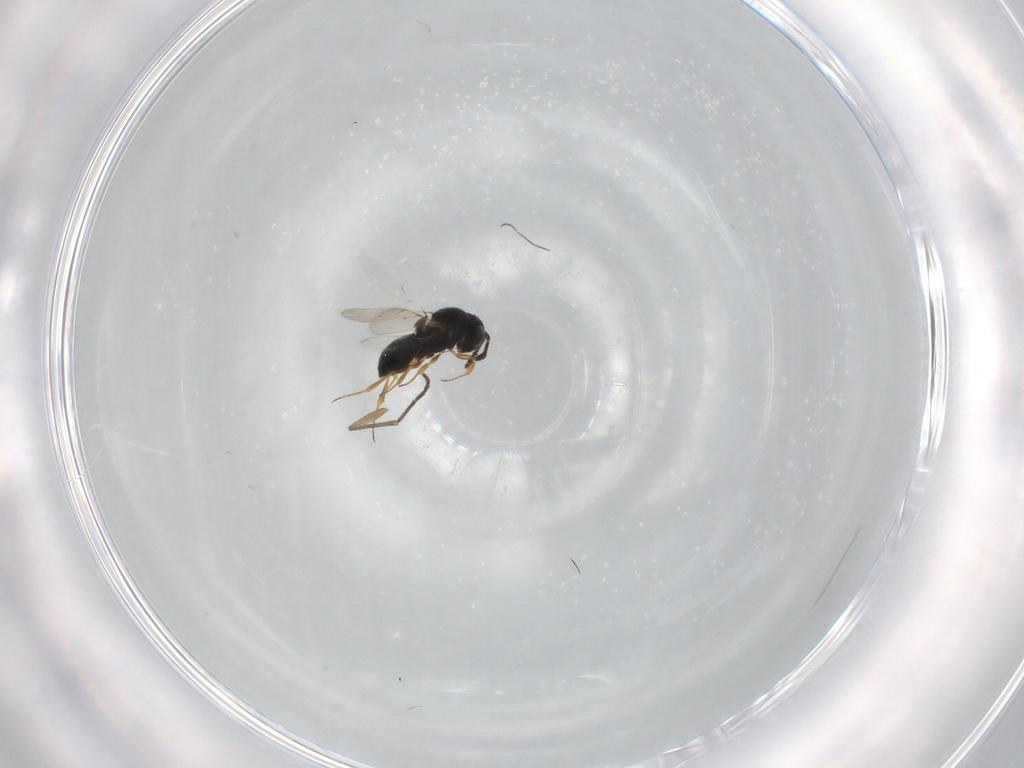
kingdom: Animalia
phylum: Arthropoda
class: Insecta
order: Hymenoptera
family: Scelionidae
